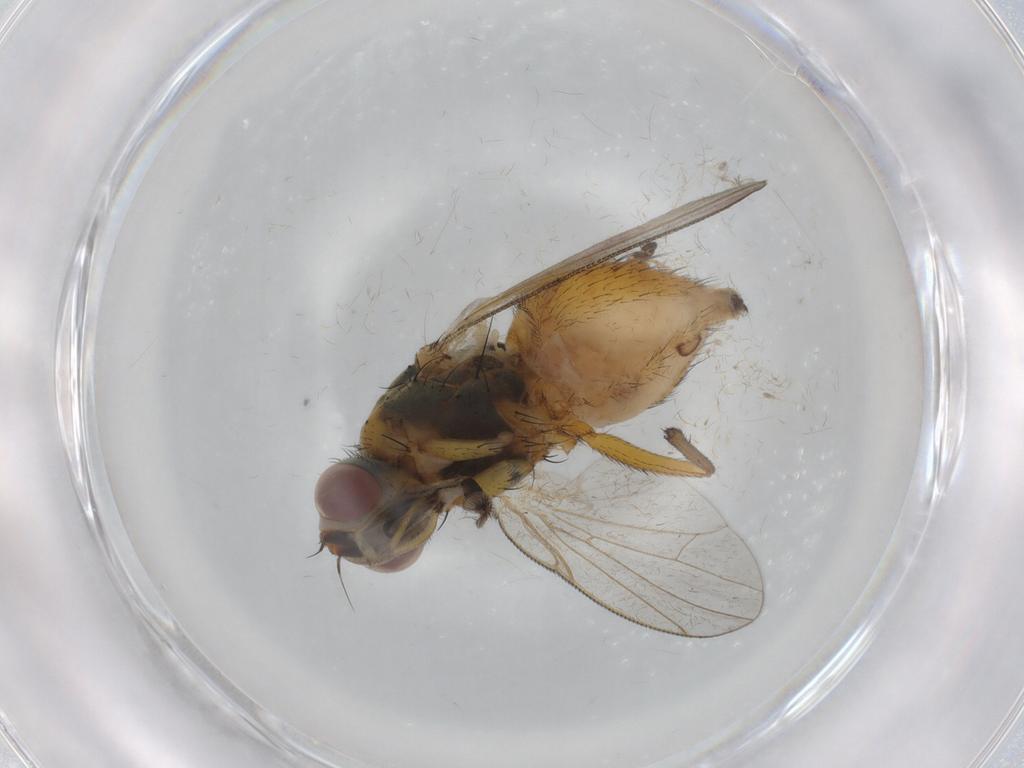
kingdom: Animalia
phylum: Arthropoda
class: Insecta
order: Diptera
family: Muscidae
